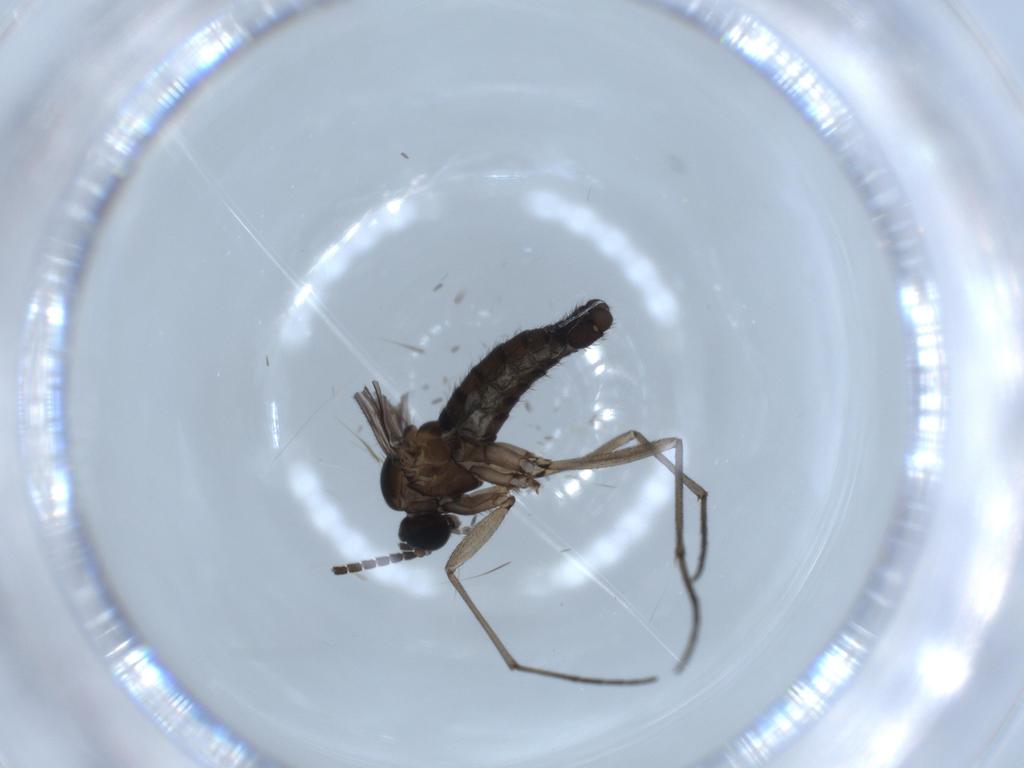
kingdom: Animalia
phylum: Arthropoda
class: Insecta
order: Diptera
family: Sciaridae
